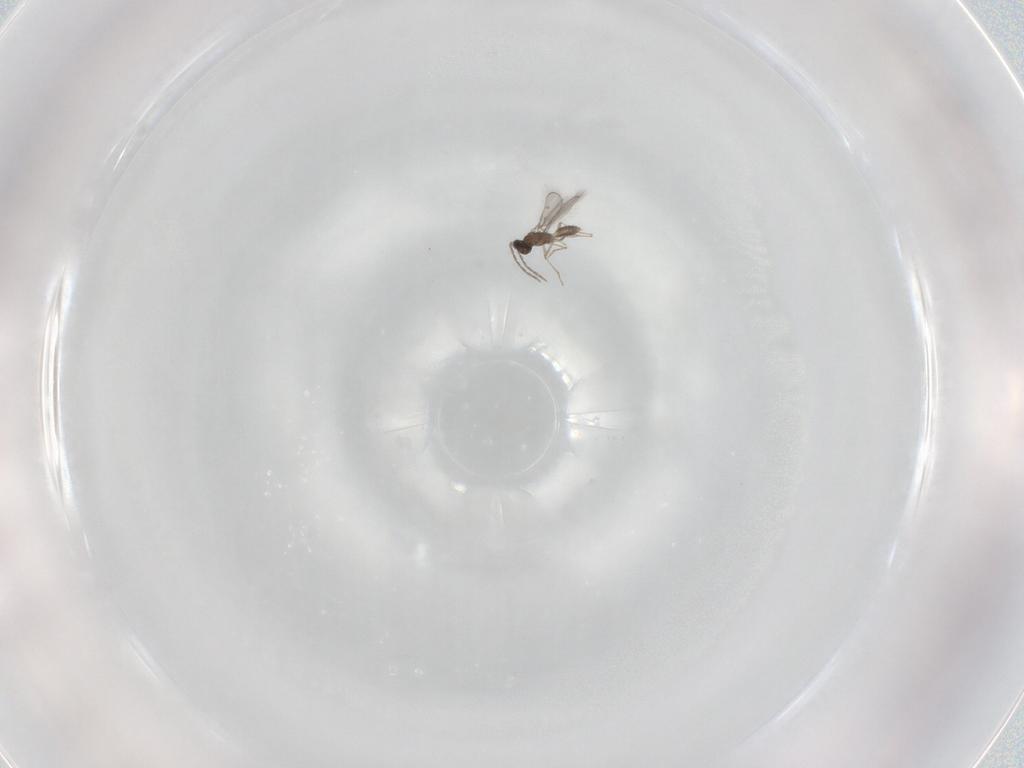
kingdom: Animalia
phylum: Arthropoda
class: Insecta
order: Hymenoptera
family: Eulophidae
